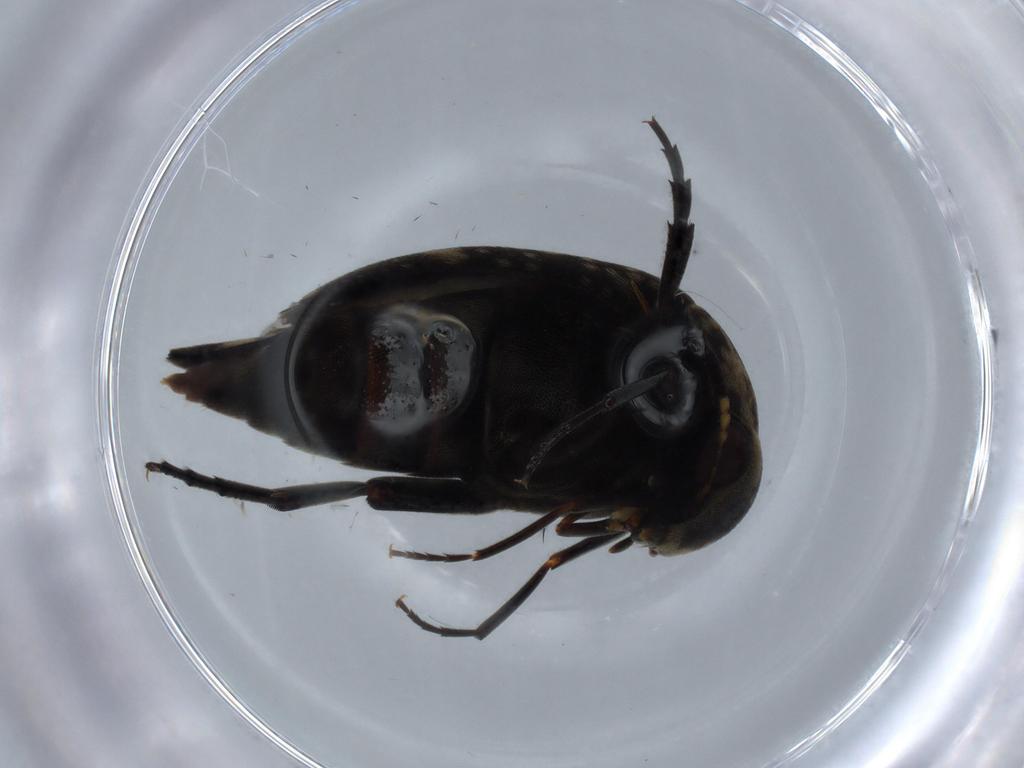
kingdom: Animalia
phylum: Arthropoda
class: Insecta
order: Coleoptera
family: Mordellidae
